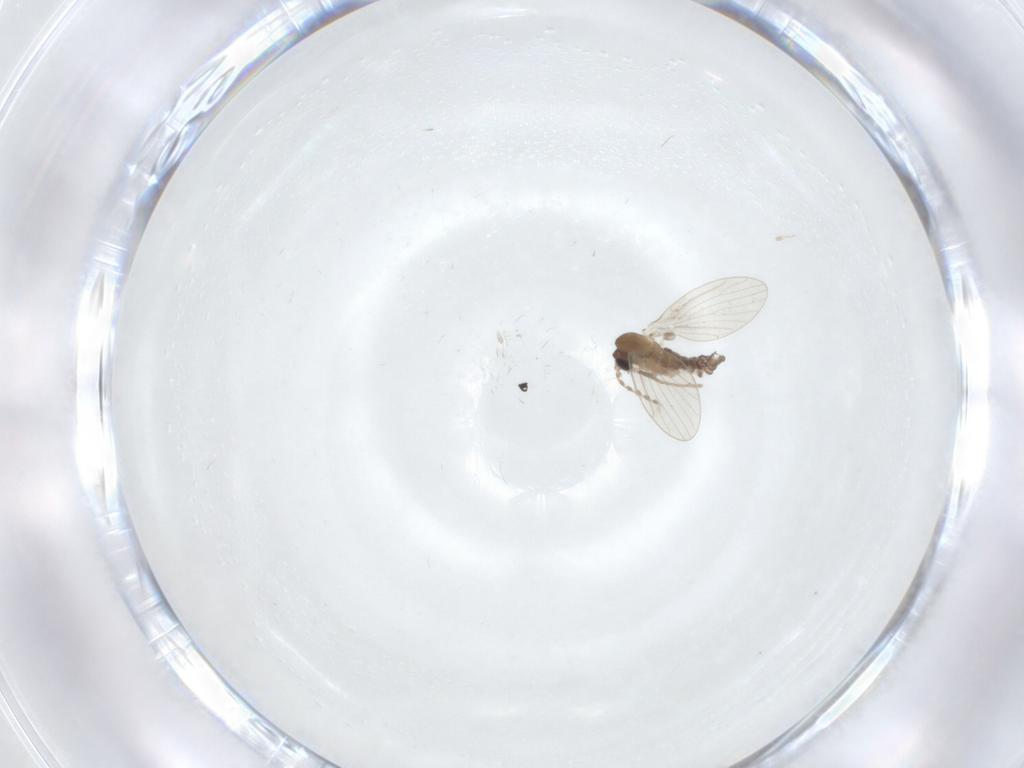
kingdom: Animalia
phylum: Arthropoda
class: Insecta
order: Diptera
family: Cecidomyiidae
